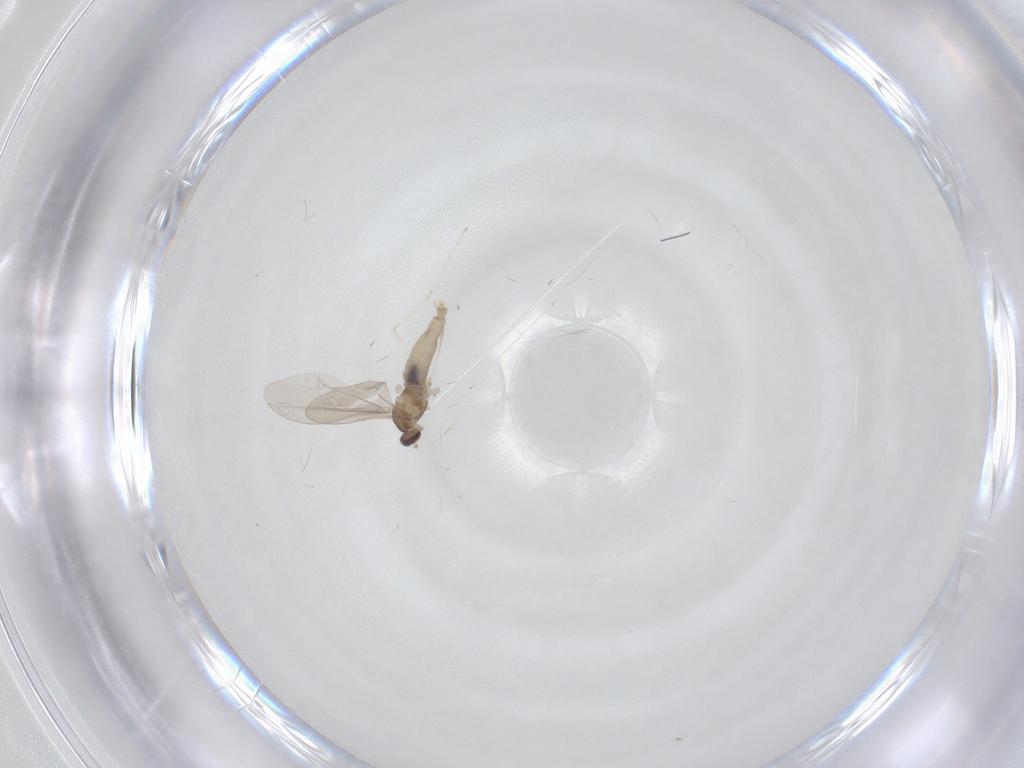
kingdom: Animalia
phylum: Arthropoda
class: Insecta
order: Diptera
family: Cecidomyiidae
